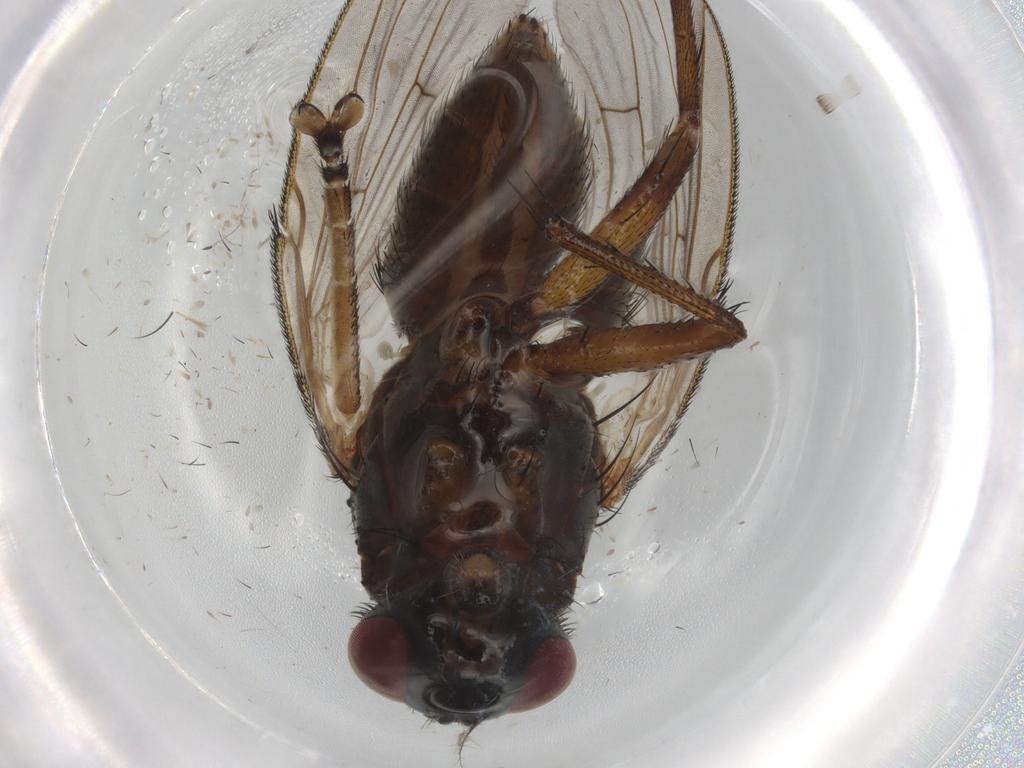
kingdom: Animalia
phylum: Arthropoda
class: Insecta
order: Diptera
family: Muscidae
